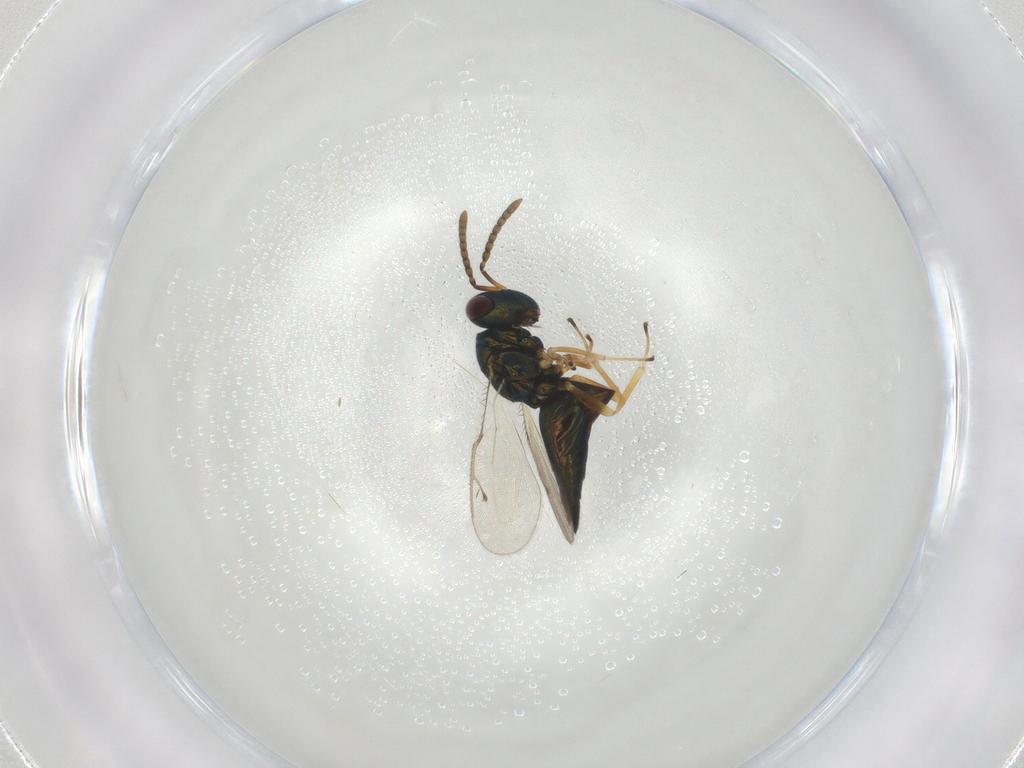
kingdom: Animalia
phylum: Arthropoda
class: Insecta
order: Hymenoptera
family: Pteromalidae
